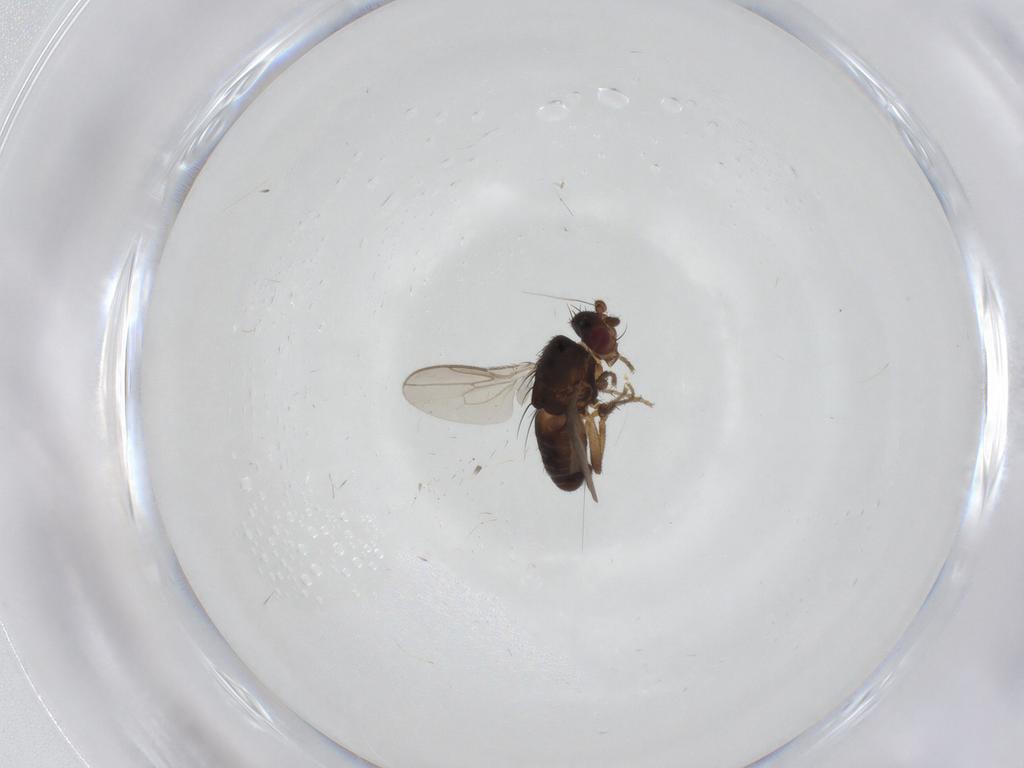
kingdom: Animalia
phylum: Arthropoda
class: Insecta
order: Diptera
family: Limoniidae
